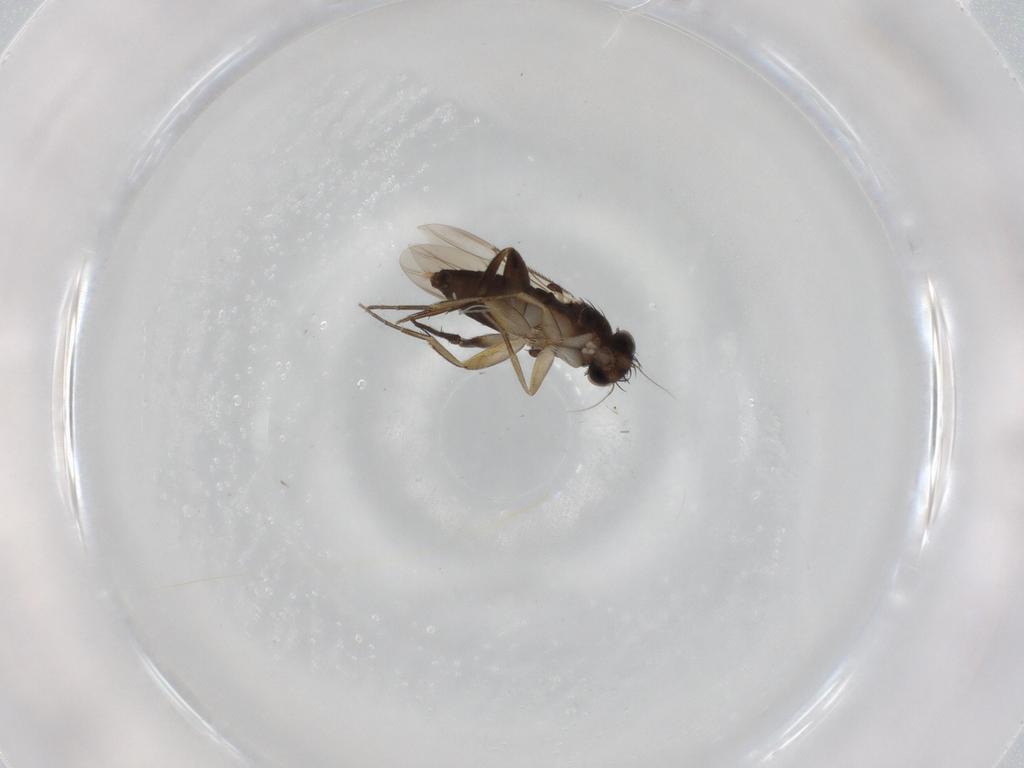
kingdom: Animalia
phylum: Arthropoda
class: Insecta
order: Diptera
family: Phoridae
